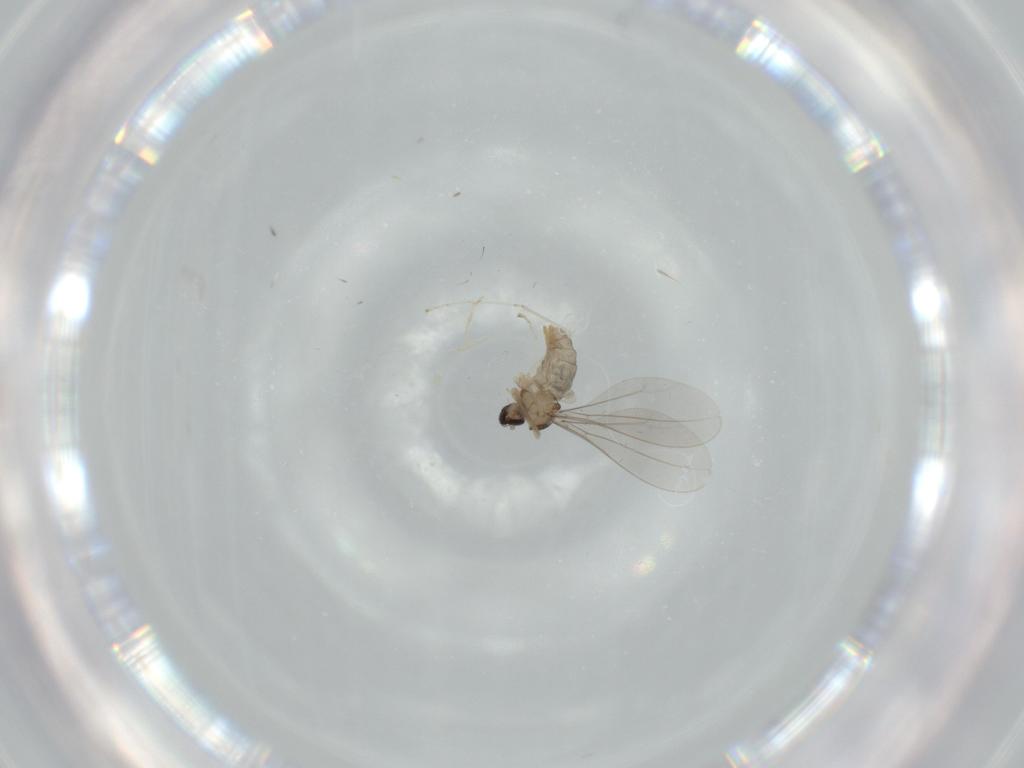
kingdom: Animalia
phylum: Arthropoda
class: Insecta
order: Diptera
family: Cecidomyiidae
